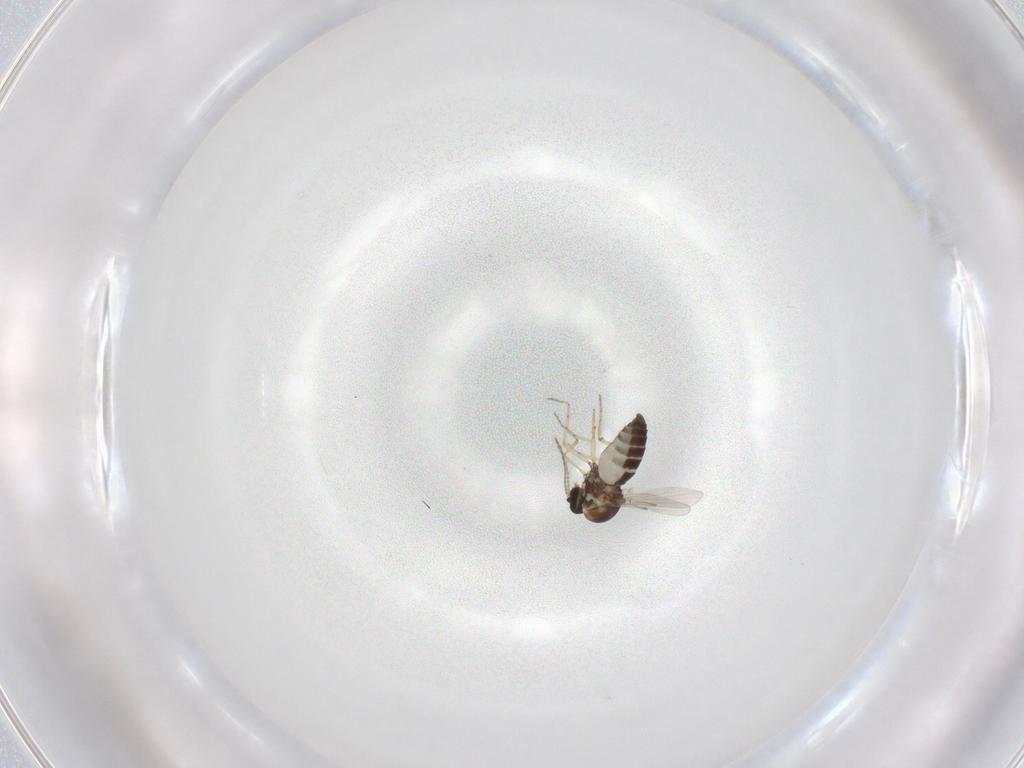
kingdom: Animalia
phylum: Arthropoda
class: Insecta
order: Diptera
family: Ceratopogonidae
